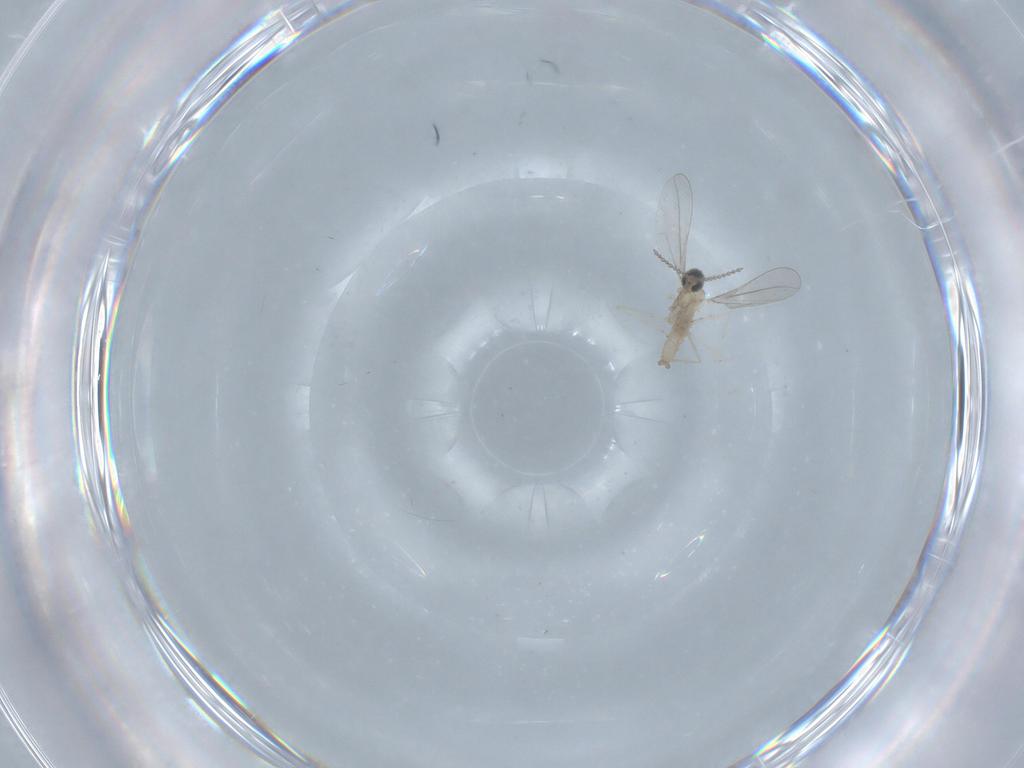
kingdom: Animalia
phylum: Arthropoda
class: Insecta
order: Diptera
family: Cecidomyiidae
